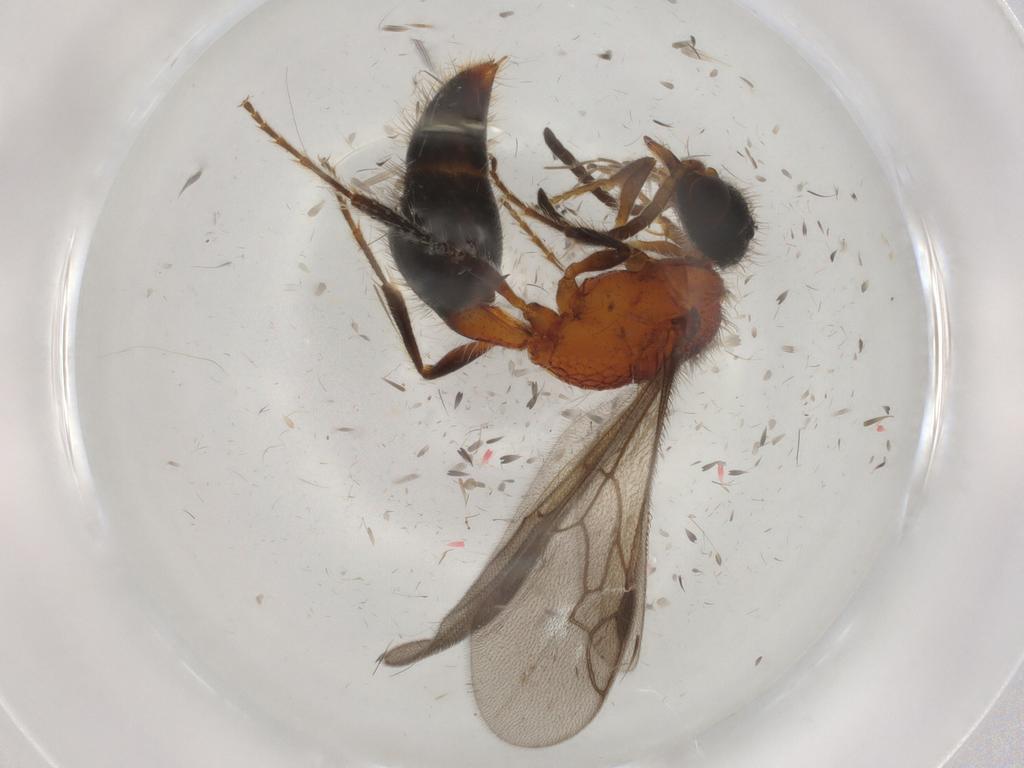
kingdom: Animalia
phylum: Arthropoda
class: Insecta
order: Hymenoptera
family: Mutillidae
